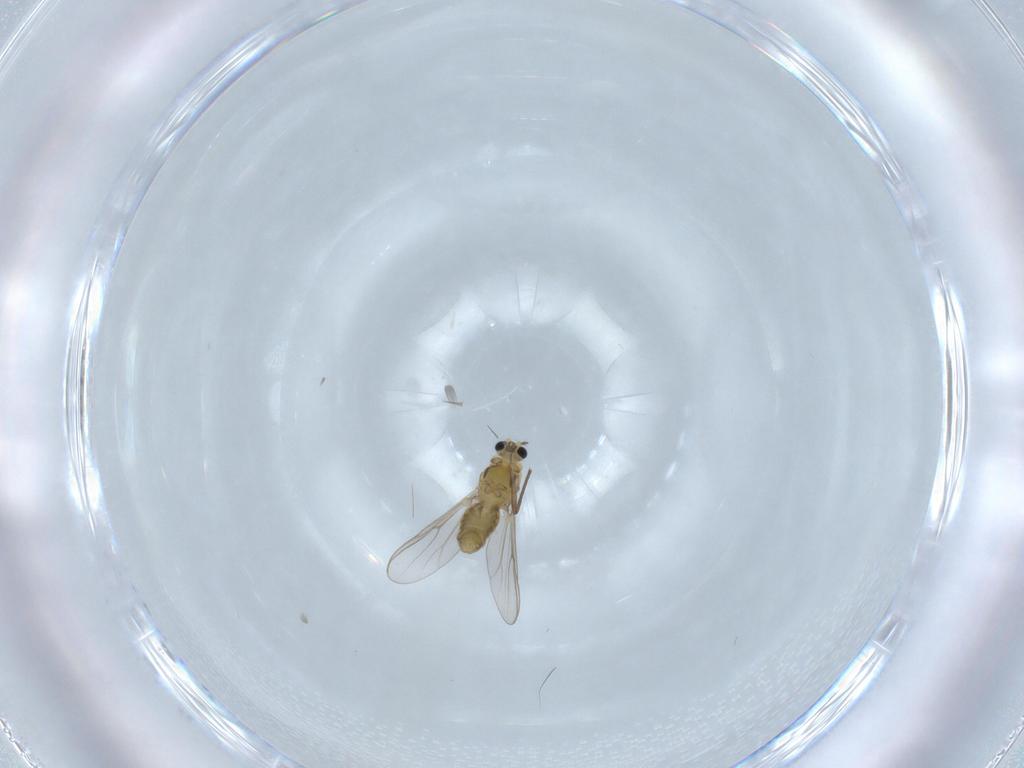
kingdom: Animalia
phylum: Arthropoda
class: Insecta
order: Diptera
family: Chironomidae
